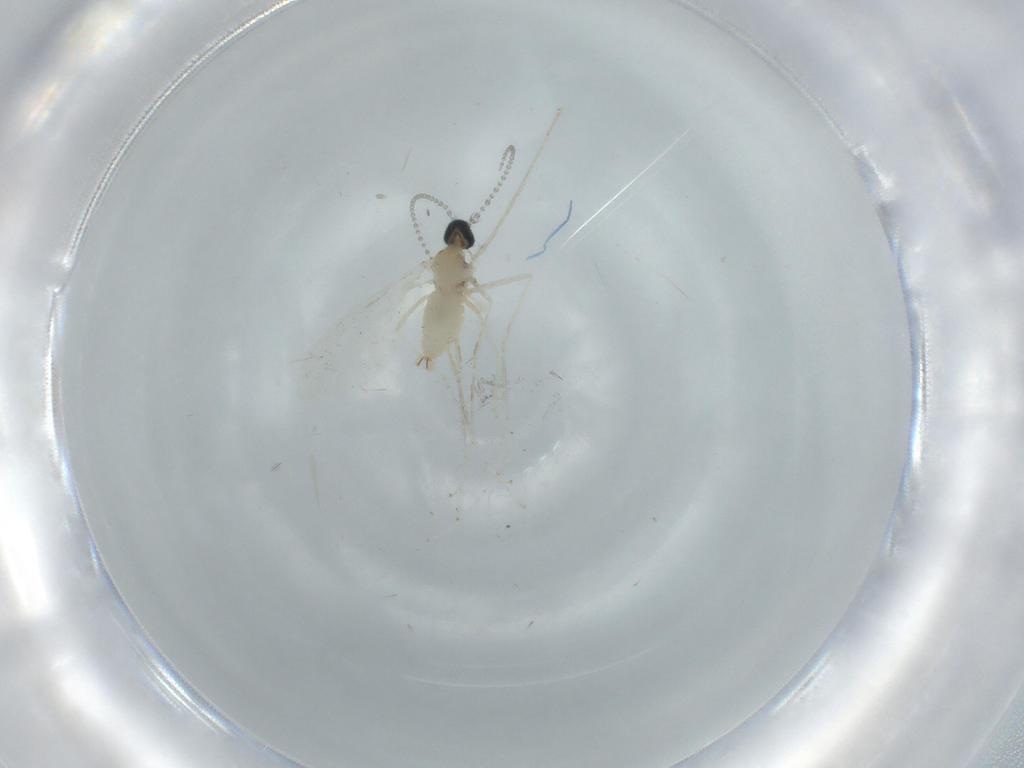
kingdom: Animalia
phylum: Arthropoda
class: Insecta
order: Diptera
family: Cecidomyiidae
